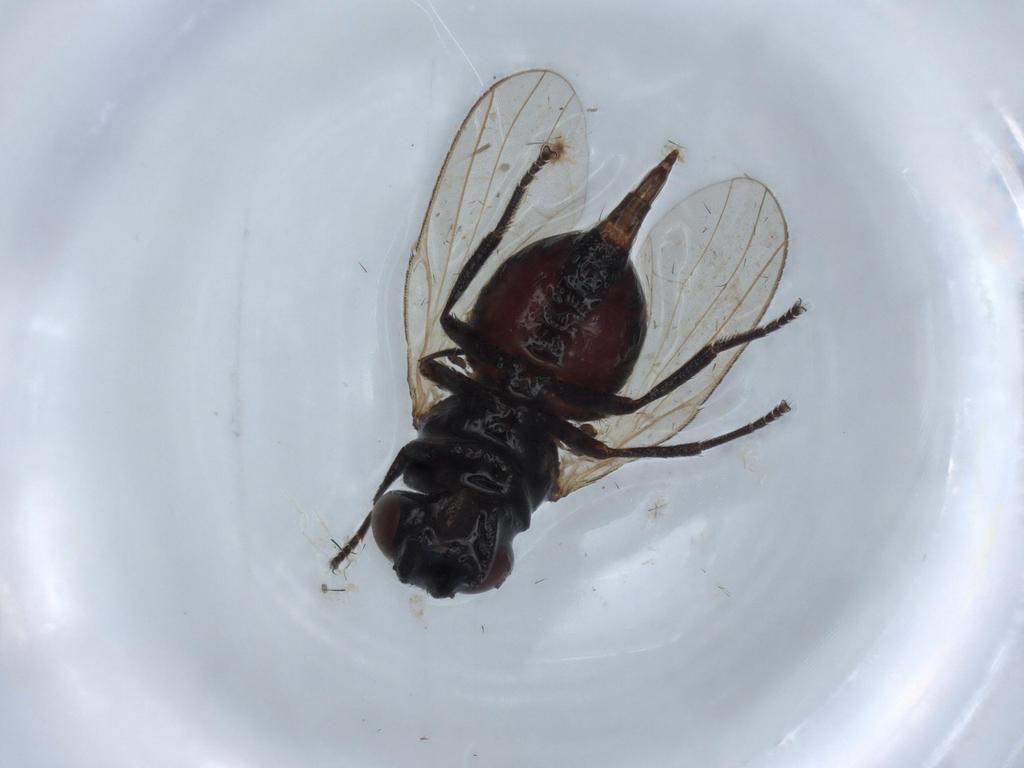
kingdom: Animalia
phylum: Arthropoda
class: Insecta
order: Diptera
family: Lonchaeidae
